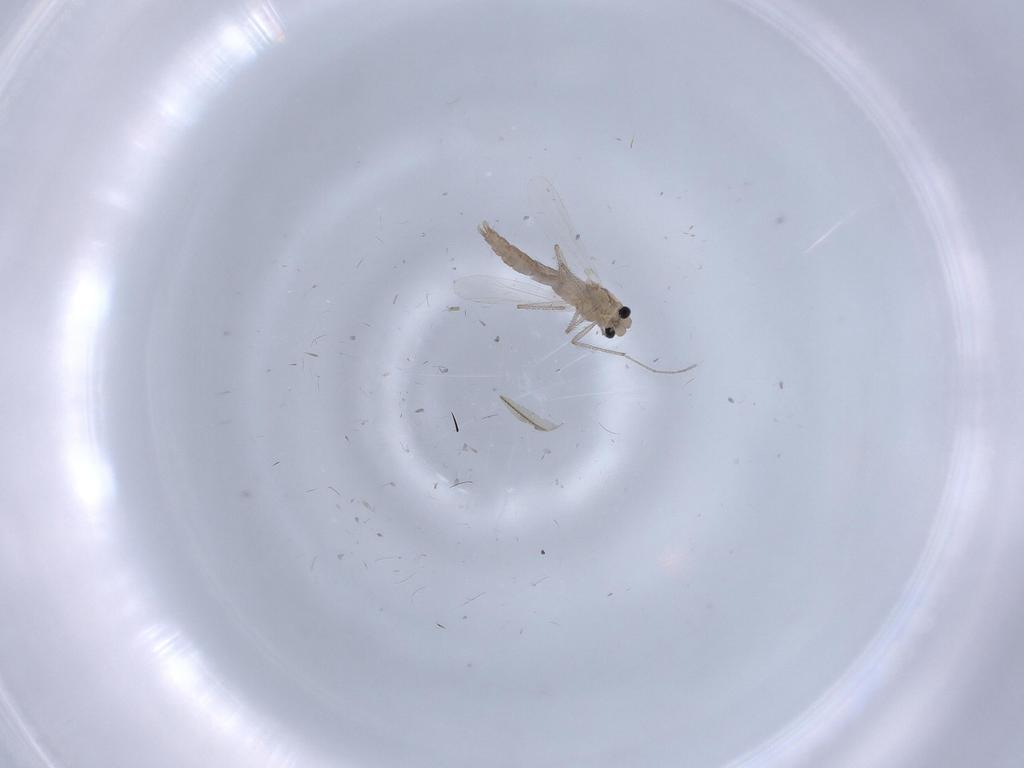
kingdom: Animalia
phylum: Arthropoda
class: Insecta
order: Diptera
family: Chironomidae
